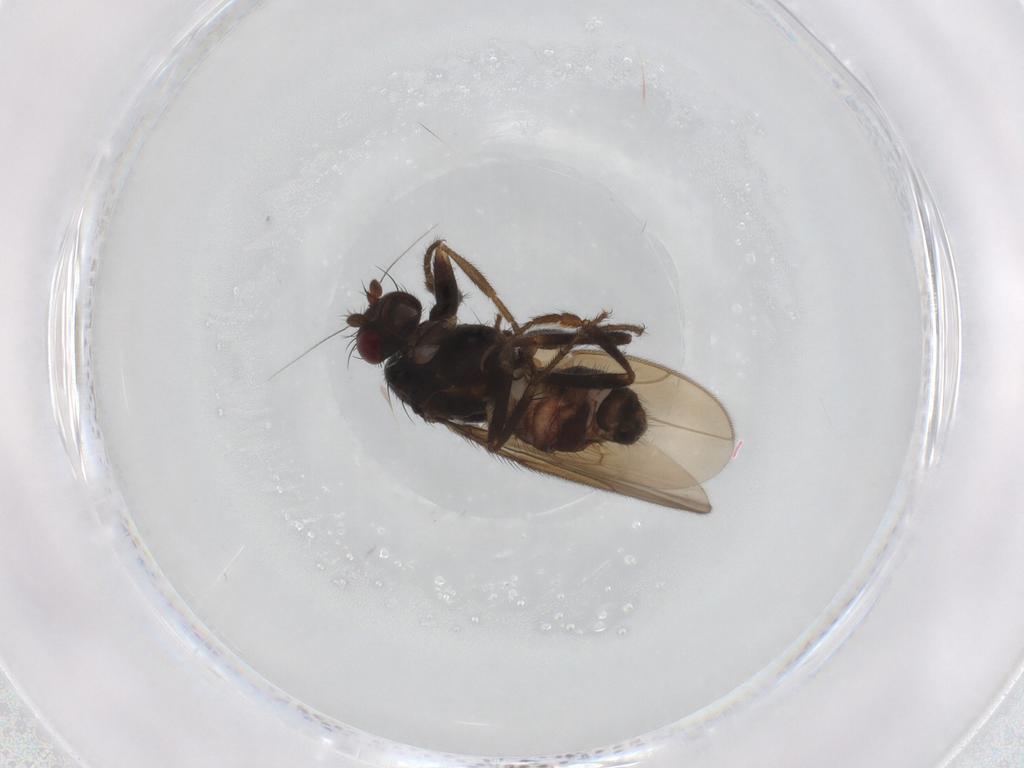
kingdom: Animalia
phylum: Arthropoda
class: Insecta
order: Diptera
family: Sphaeroceridae
